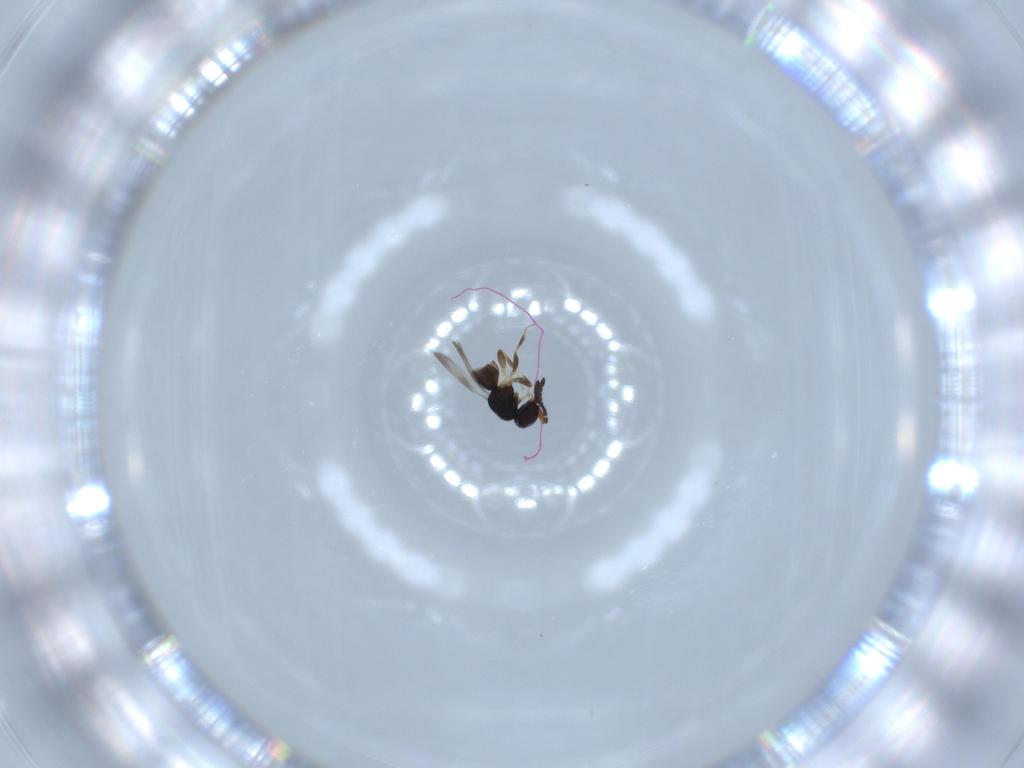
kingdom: Animalia
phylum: Arthropoda
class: Insecta
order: Hymenoptera
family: Ceraphronidae
